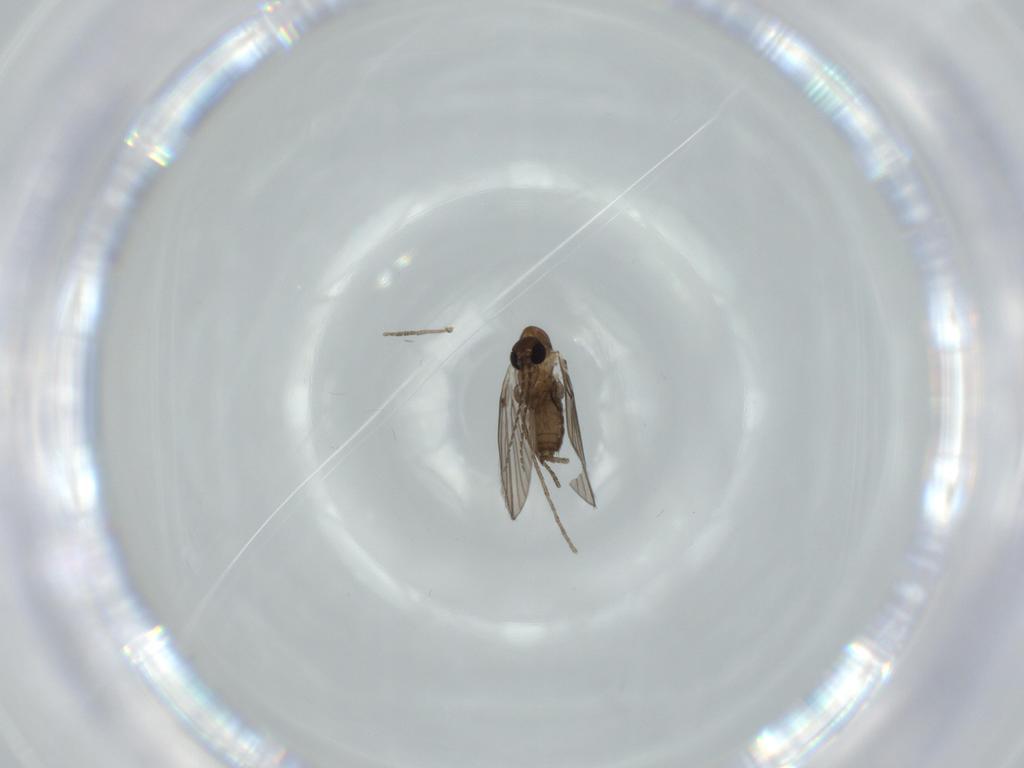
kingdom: Animalia
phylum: Arthropoda
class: Insecta
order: Diptera
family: Psychodidae
